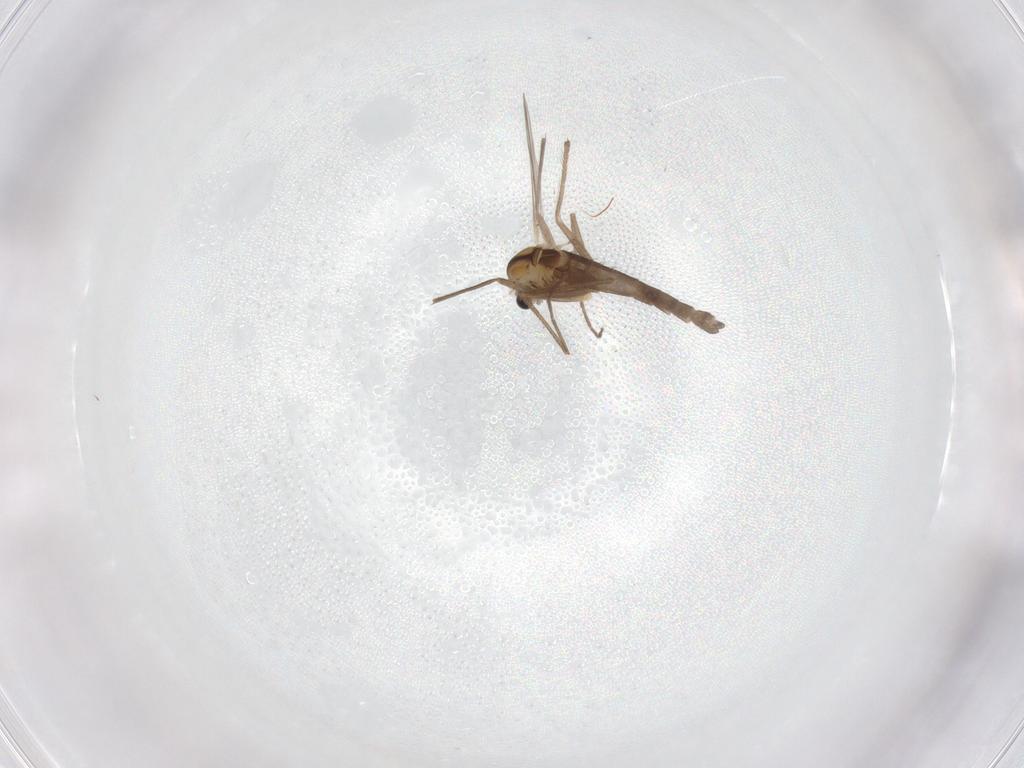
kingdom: Animalia
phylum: Arthropoda
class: Insecta
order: Diptera
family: Chironomidae
